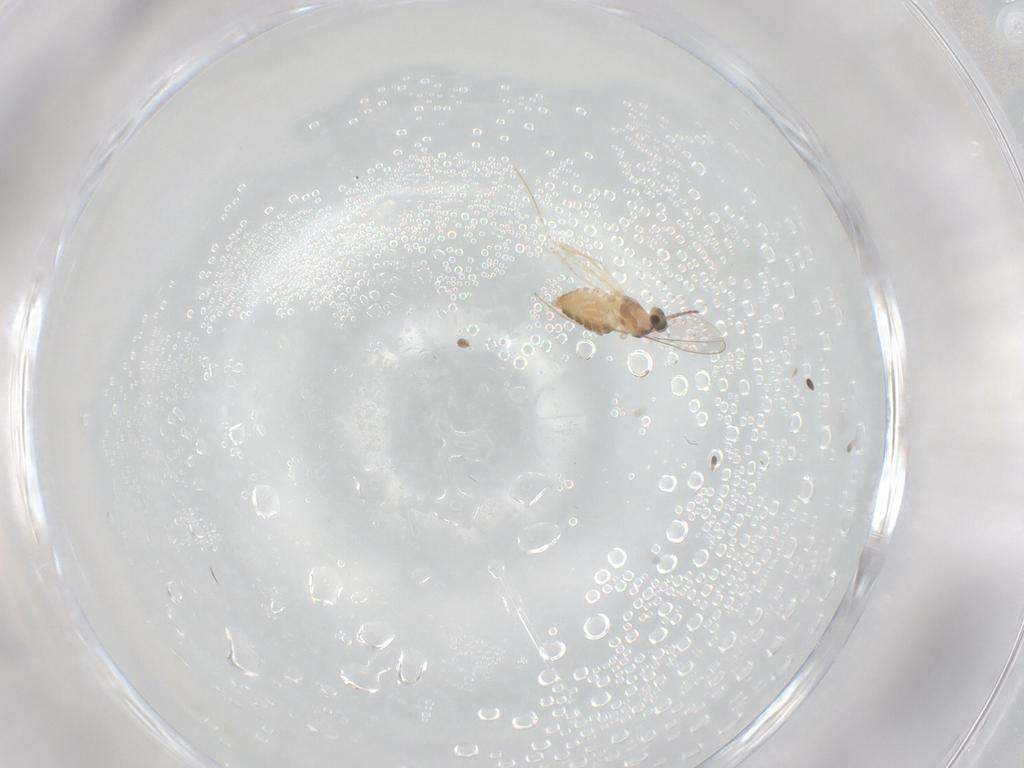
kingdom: Animalia
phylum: Arthropoda
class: Insecta
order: Diptera
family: Cecidomyiidae
